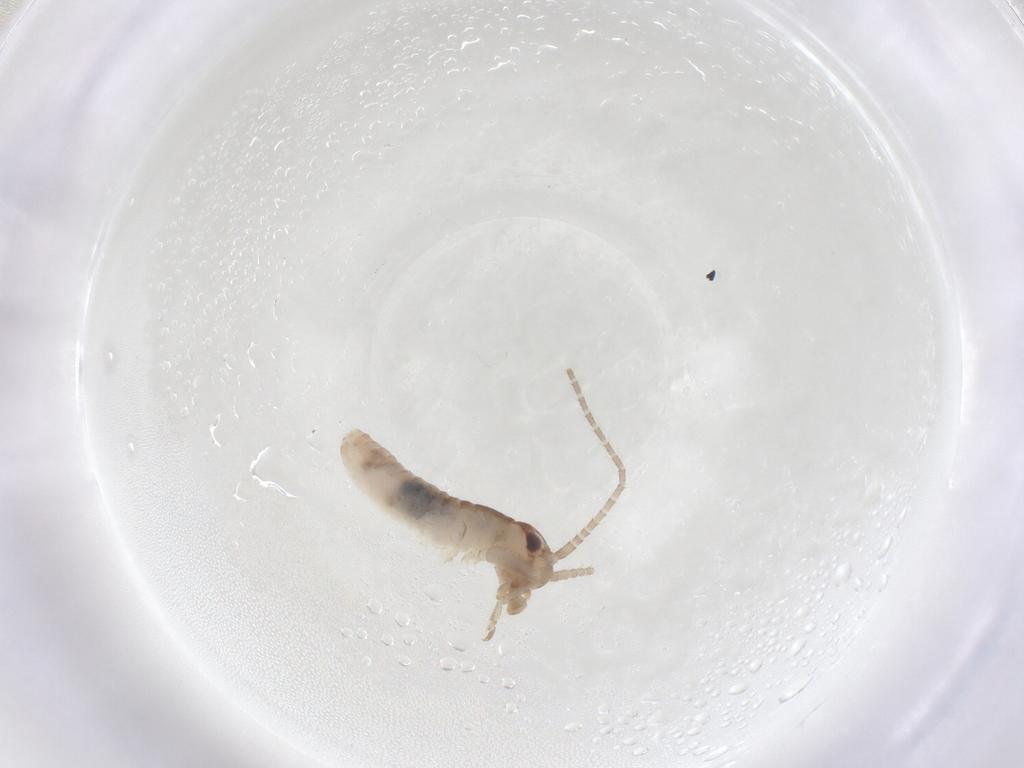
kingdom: Animalia
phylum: Arthropoda
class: Insecta
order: Orthoptera
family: Gryllidae
